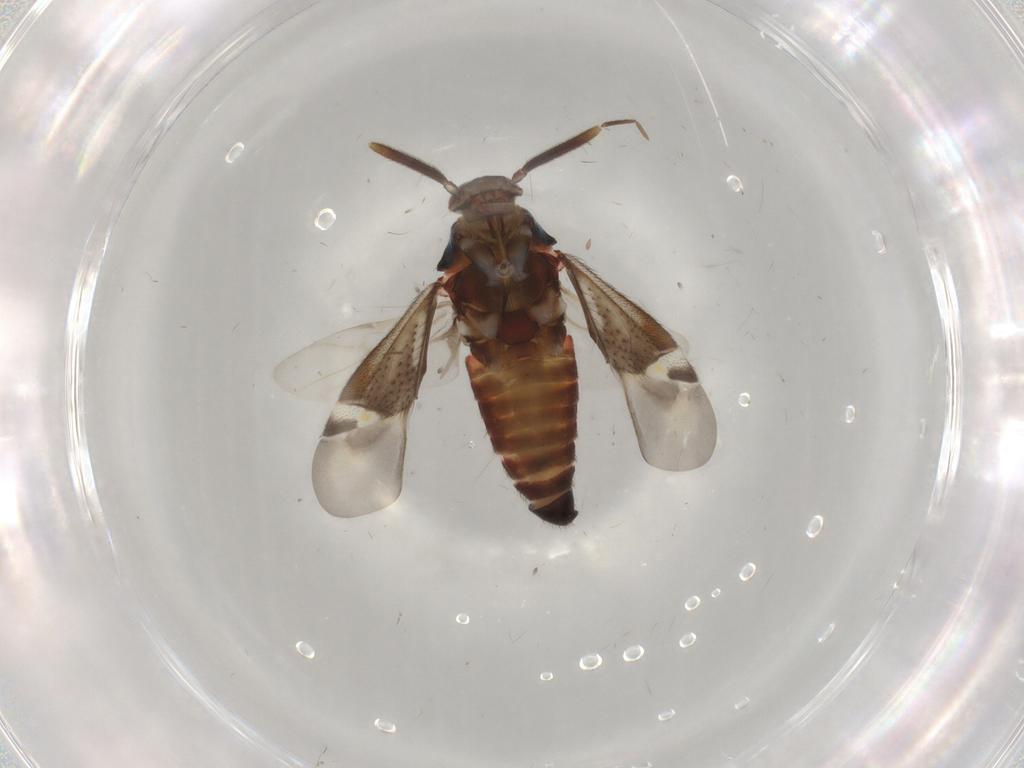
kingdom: Animalia
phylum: Arthropoda
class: Insecta
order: Hemiptera
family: Miridae
